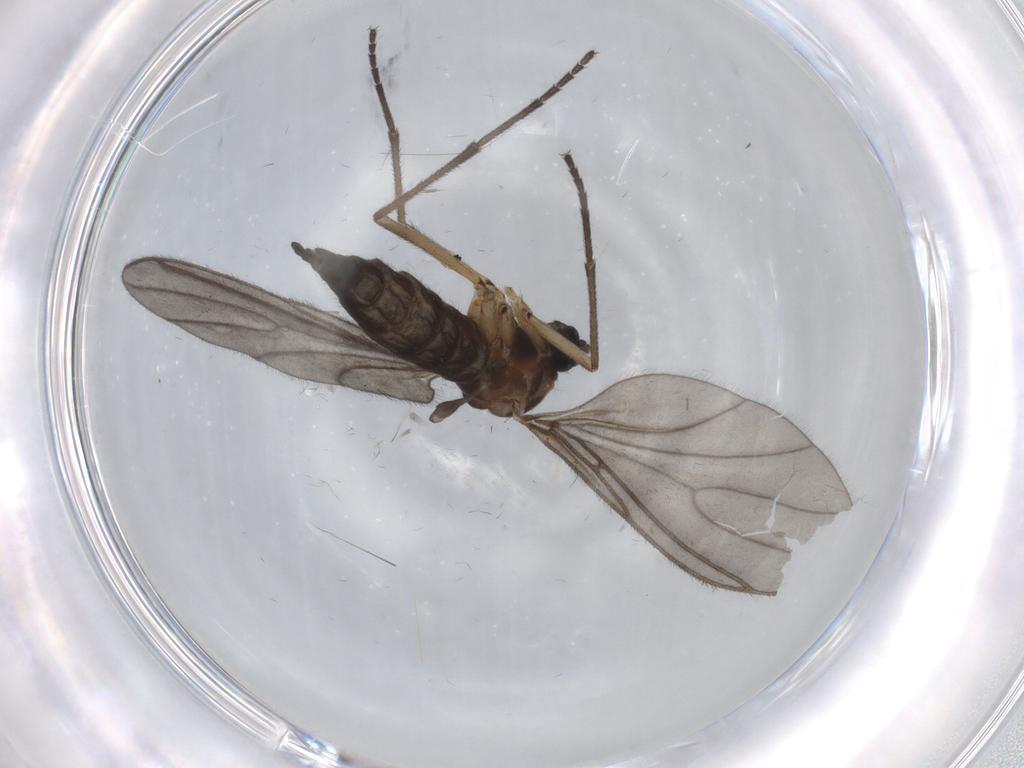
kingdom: Animalia
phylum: Arthropoda
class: Insecta
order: Diptera
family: Sciaridae
